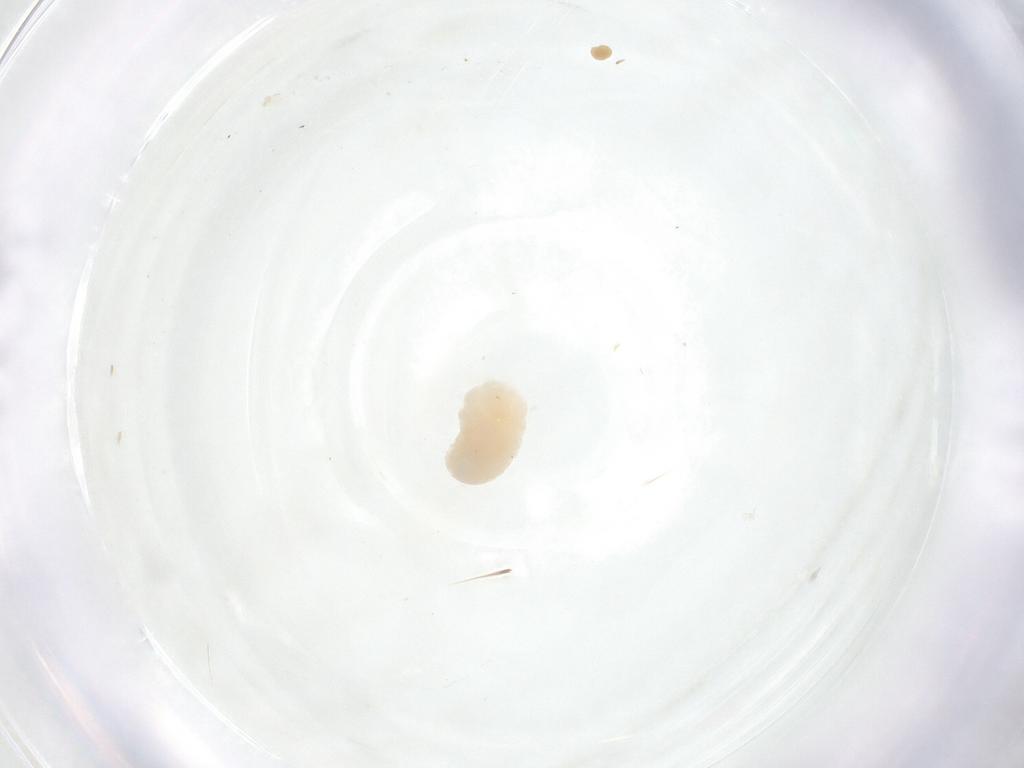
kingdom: Animalia
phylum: Arthropoda
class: Insecta
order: Diptera
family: Fergusoninidae
